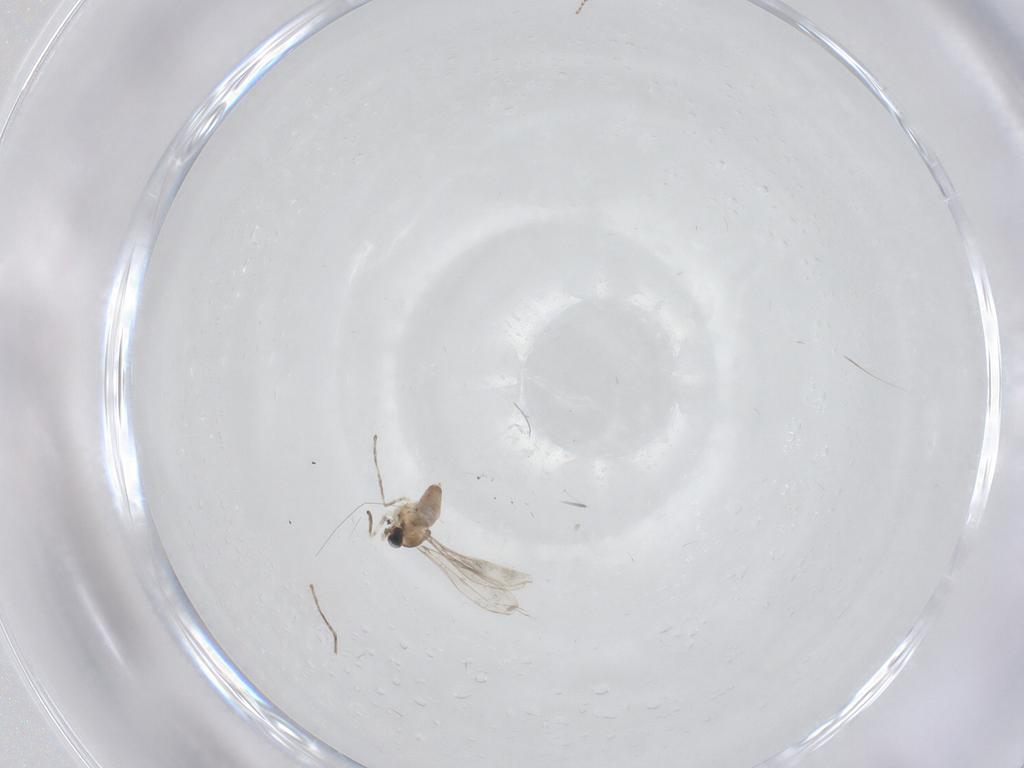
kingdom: Animalia
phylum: Arthropoda
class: Insecta
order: Diptera
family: Cecidomyiidae
